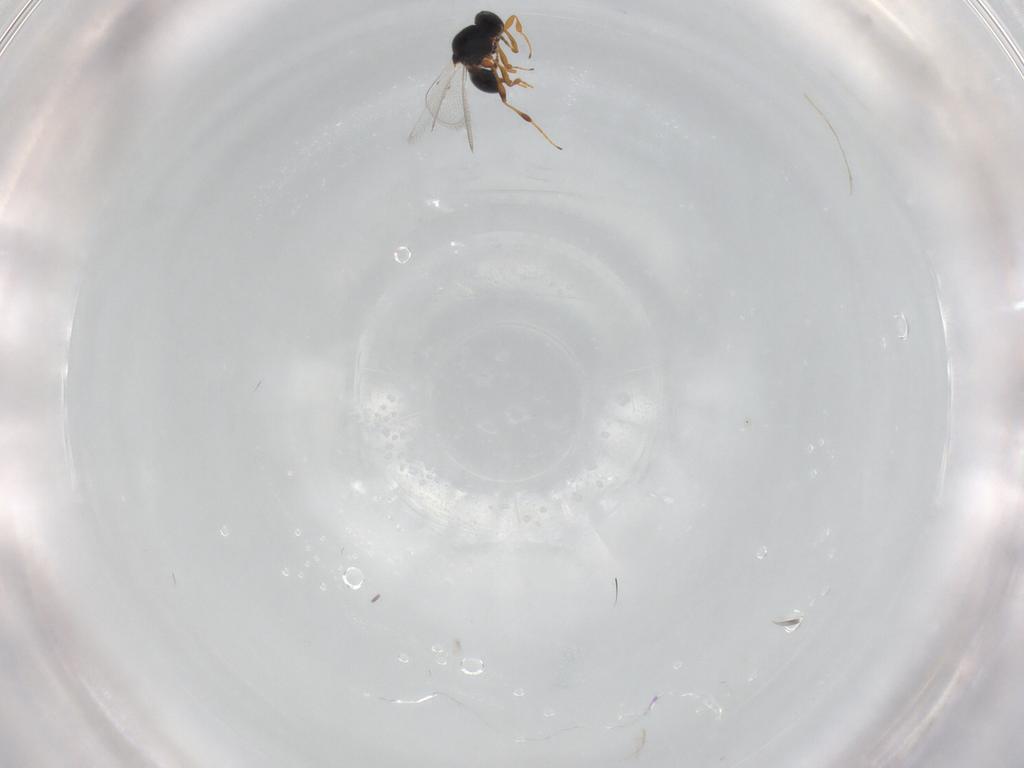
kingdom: Animalia
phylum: Arthropoda
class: Insecta
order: Hymenoptera
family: Platygastridae
